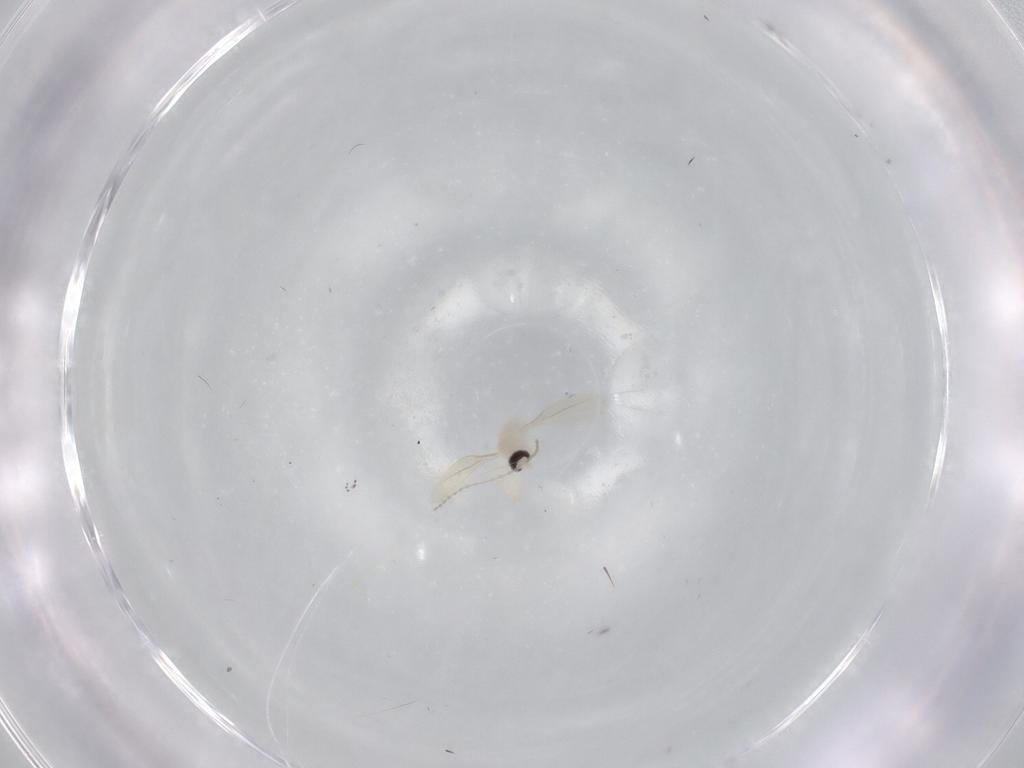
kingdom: Animalia
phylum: Arthropoda
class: Insecta
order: Diptera
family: Cecidomyiidae
